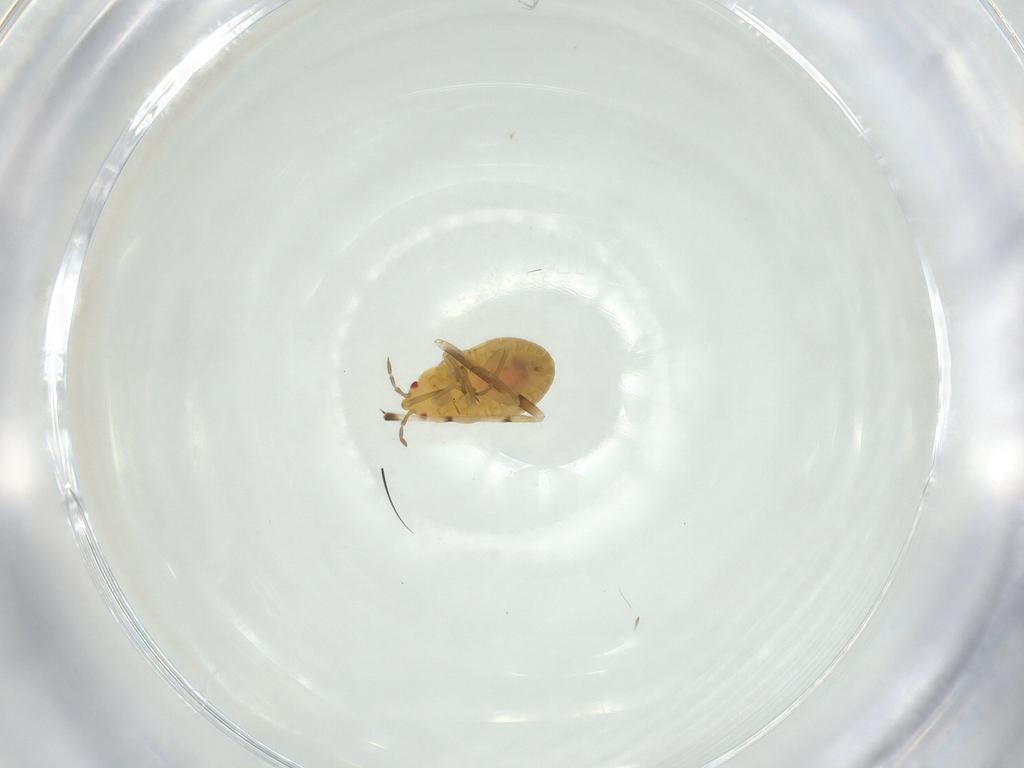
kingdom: Animalia
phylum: Arthropoda
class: Insecta
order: Hemiptera
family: Anthocoridae
